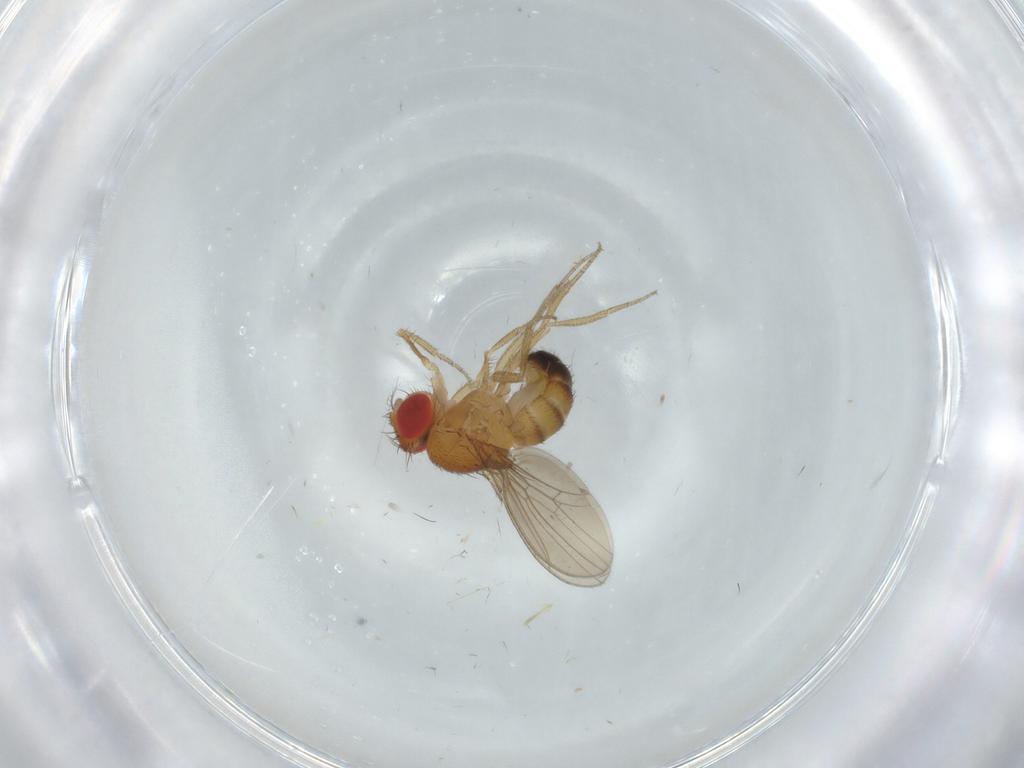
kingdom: Animalia
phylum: Arthropoda
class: Insecta
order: Diptera
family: Drosophilidae
